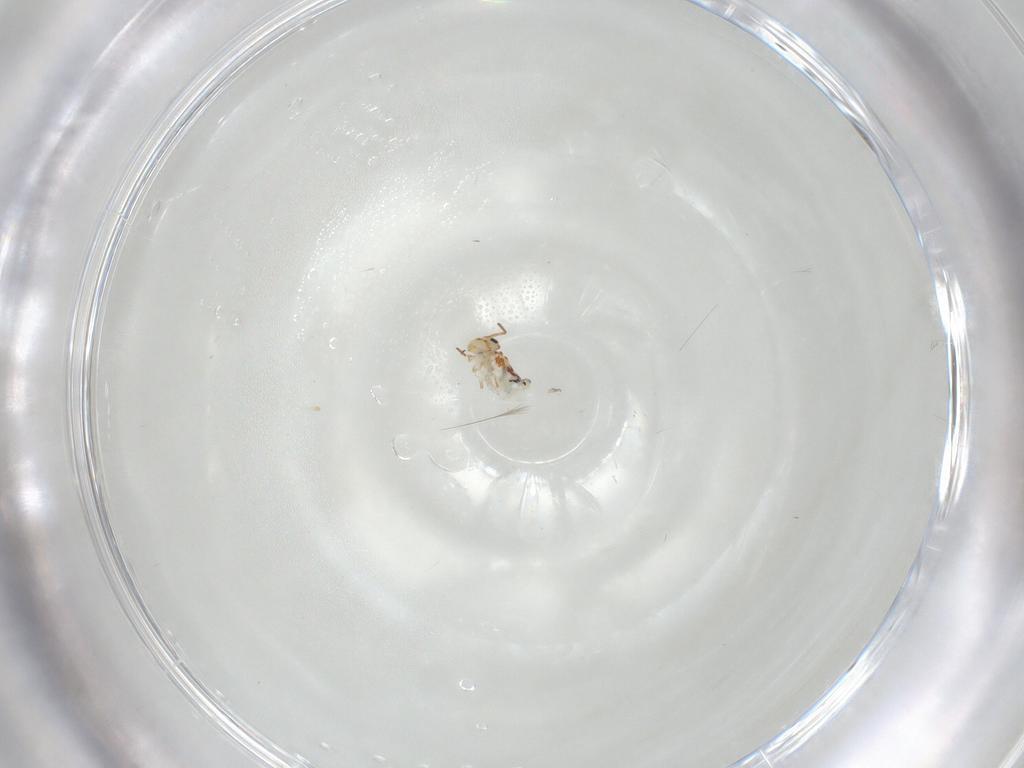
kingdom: Animalia
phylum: Arthropoda
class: Collembola
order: Symphypleona
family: Bourletiellidae
